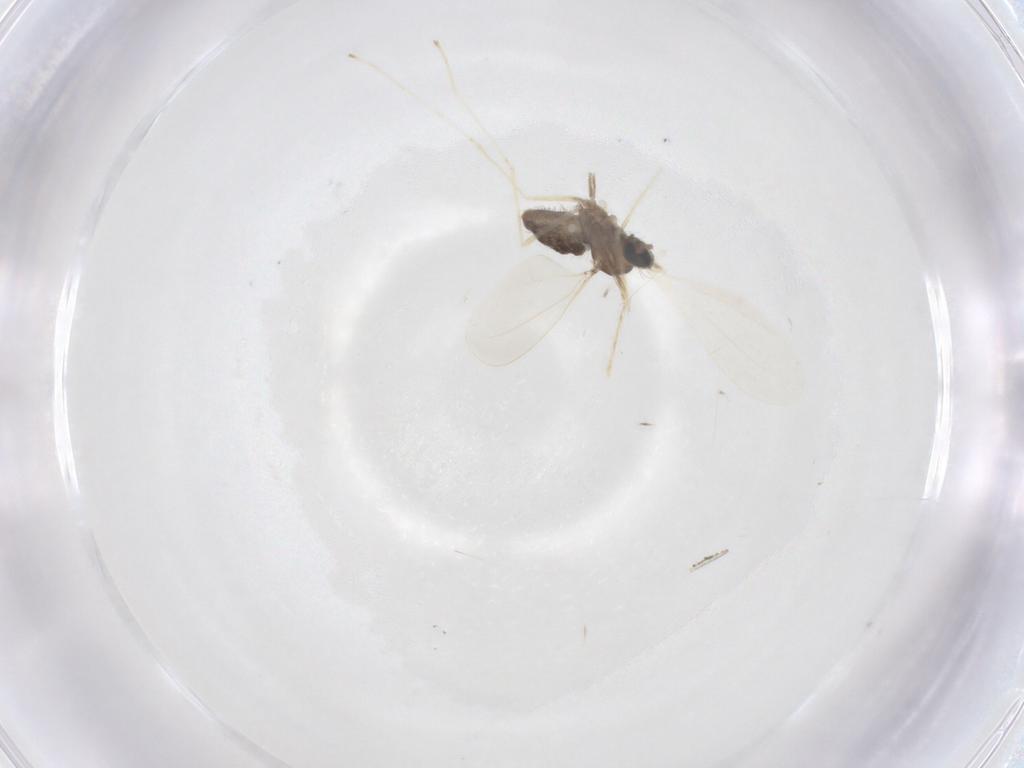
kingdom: Animalia
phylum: Arthropoda
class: Insecta
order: Diptera
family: Cecidomyiidae
